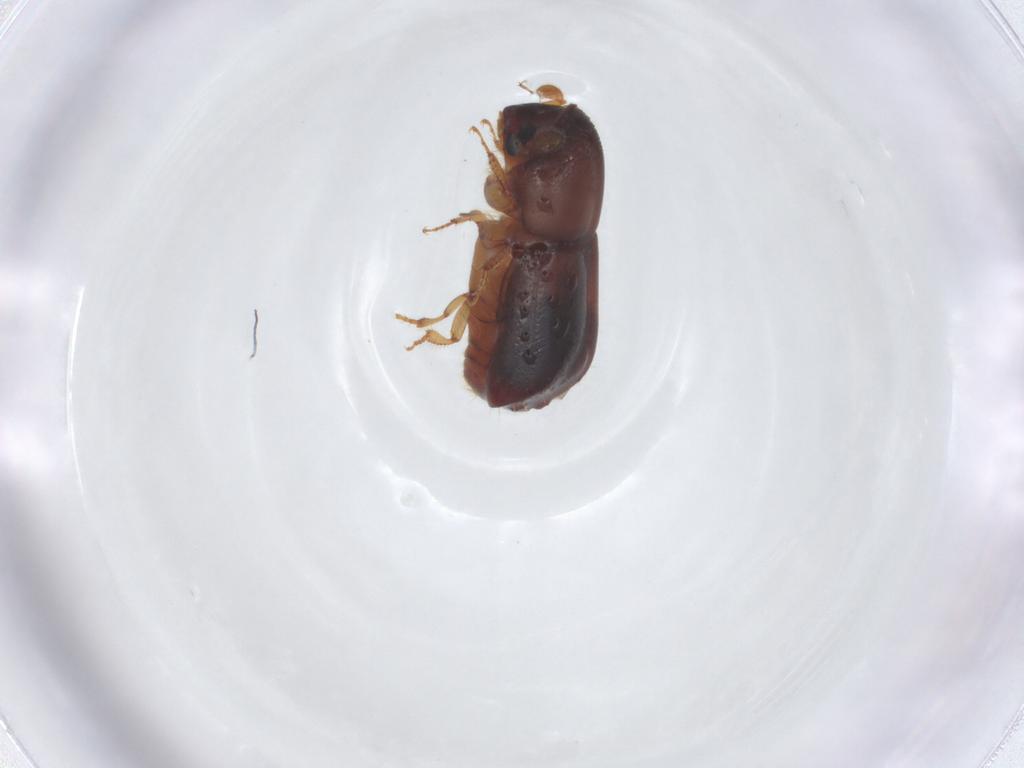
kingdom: Animalia
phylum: Arthropoda
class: Insecta
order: Coleoptera
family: Curculionidae
